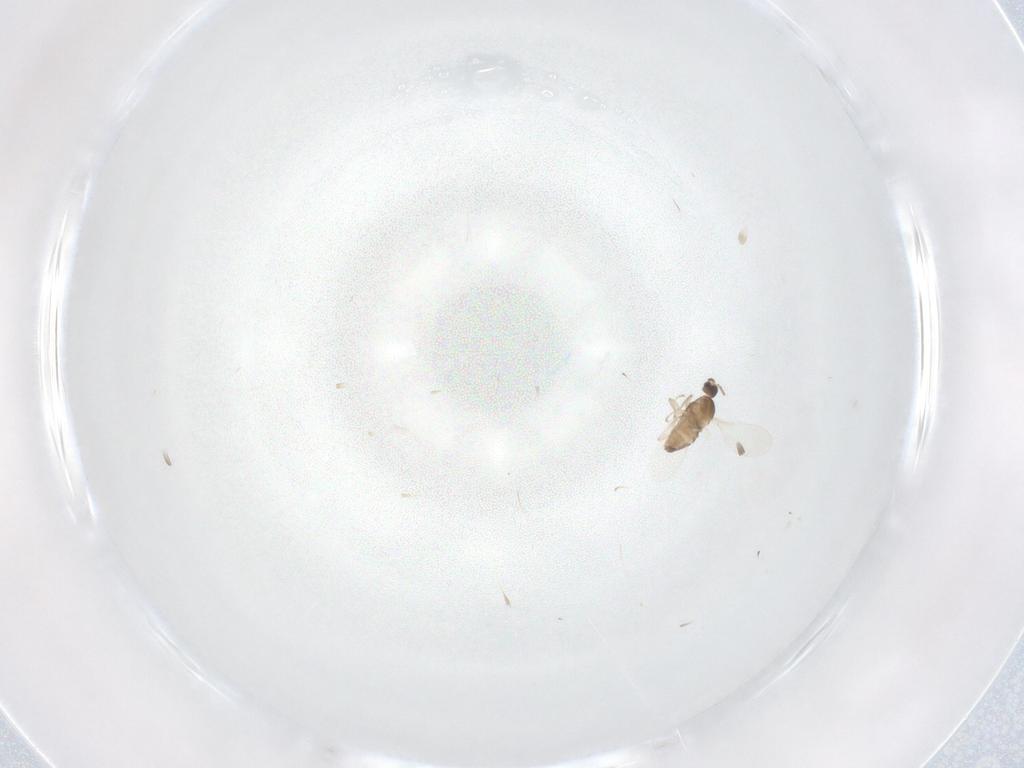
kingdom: Animalia
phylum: Arthropoda
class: Insecta
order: Diptera
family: Cecidomyiidae
